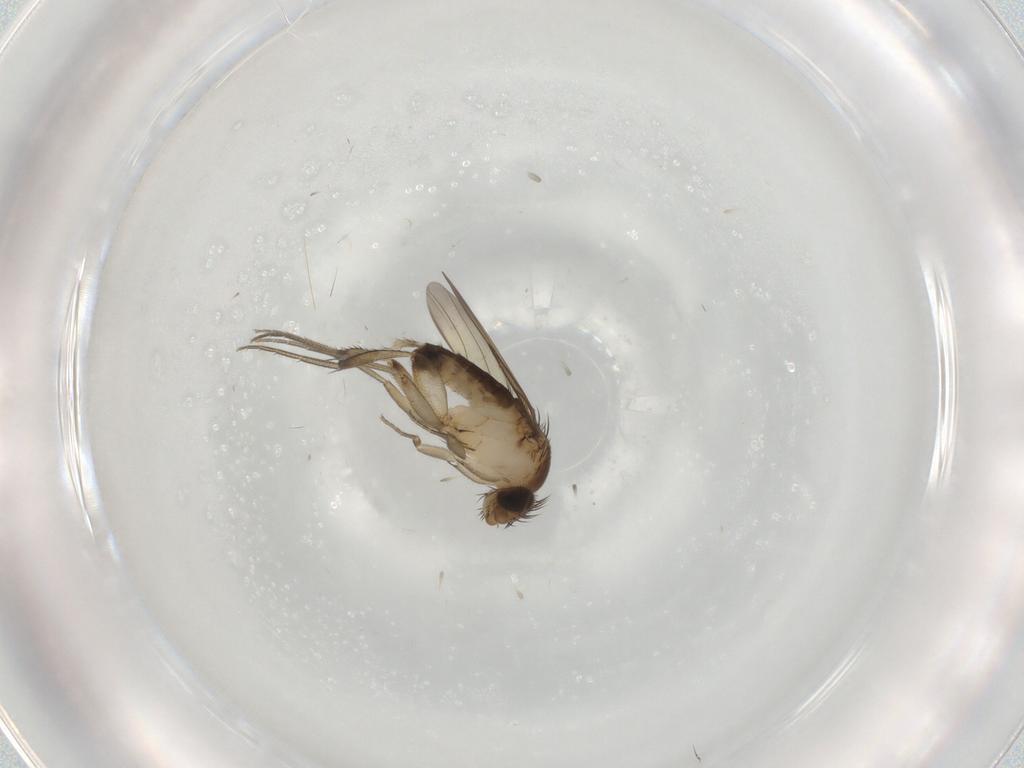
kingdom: Animalia
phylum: Arthropoda
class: Insecta
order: Diptera
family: Phoridae
